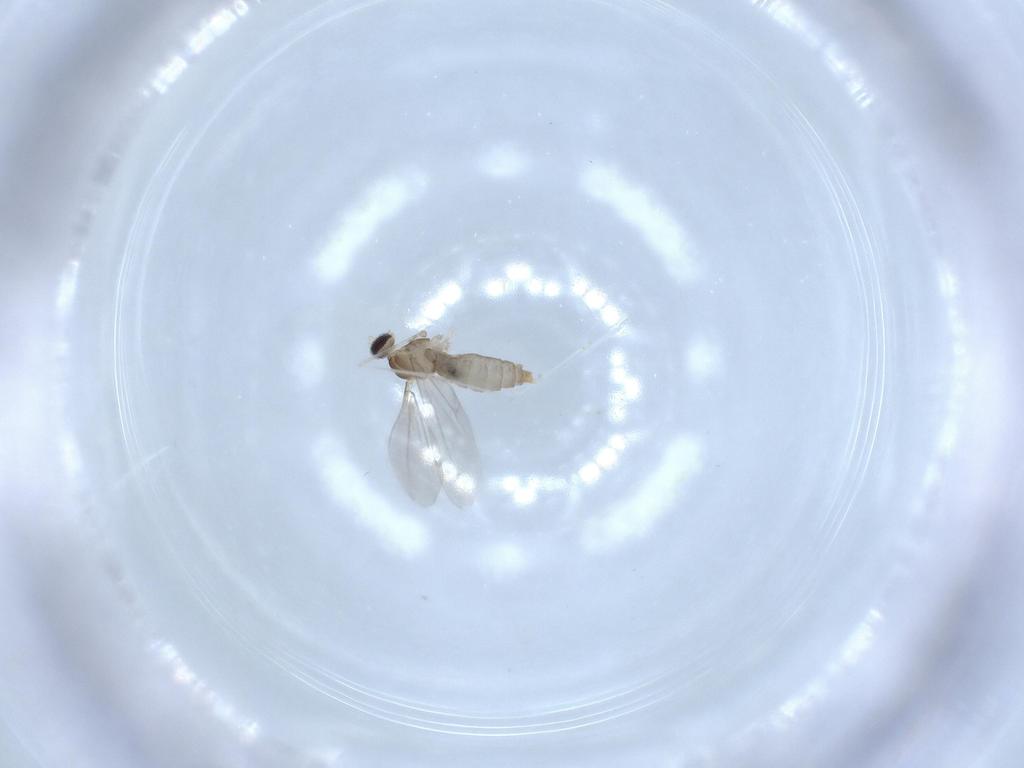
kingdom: Animalia
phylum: Arthropoda
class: Insecta
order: Diptera
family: Cecidomyiidae
